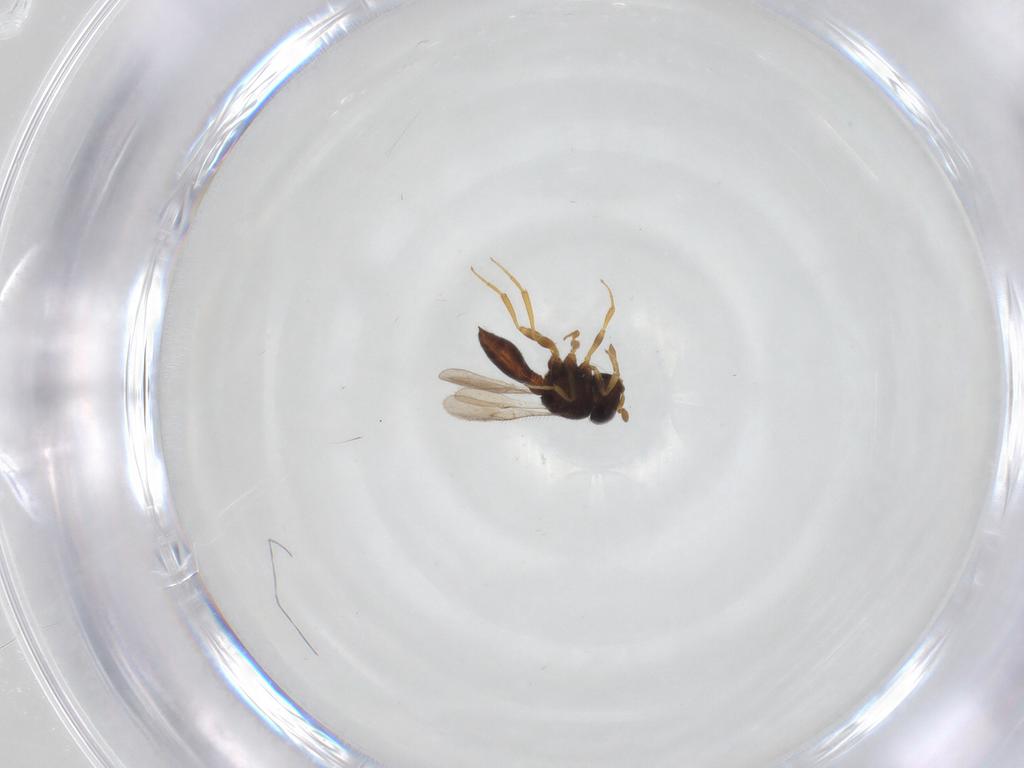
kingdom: Animalia
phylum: Arthropoda
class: Insecta
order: Hymenoptera
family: Scelionidae
